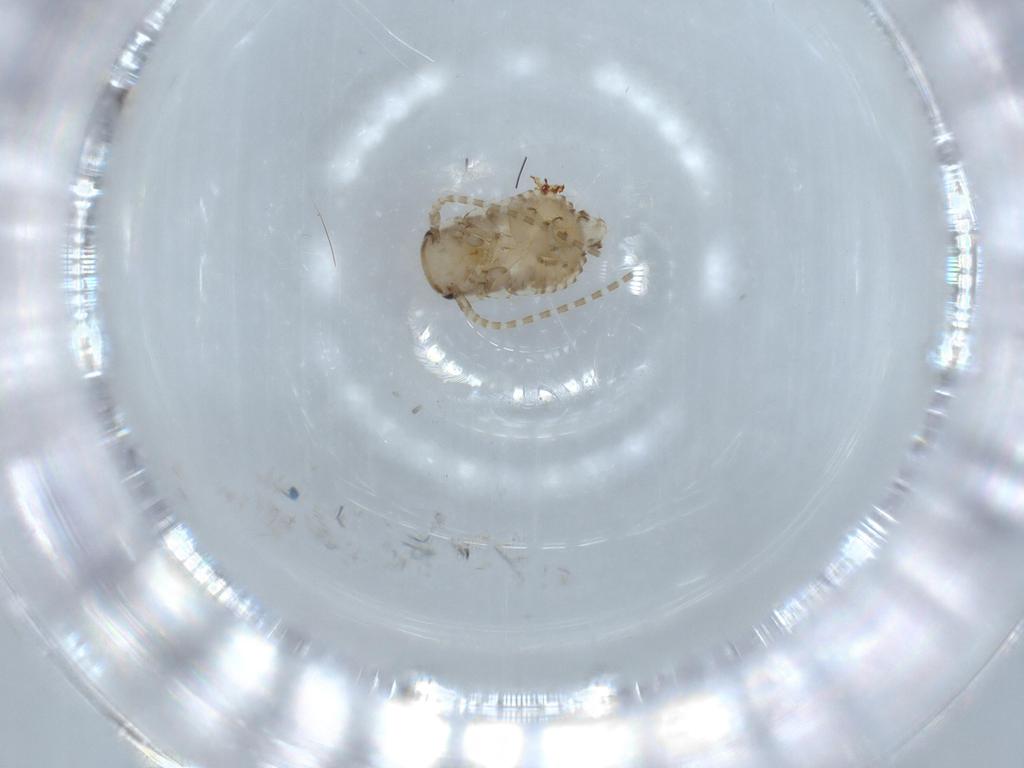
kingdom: Animalia
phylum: Arthropoda
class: Insecta
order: Blattodea
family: Ectobiidae
